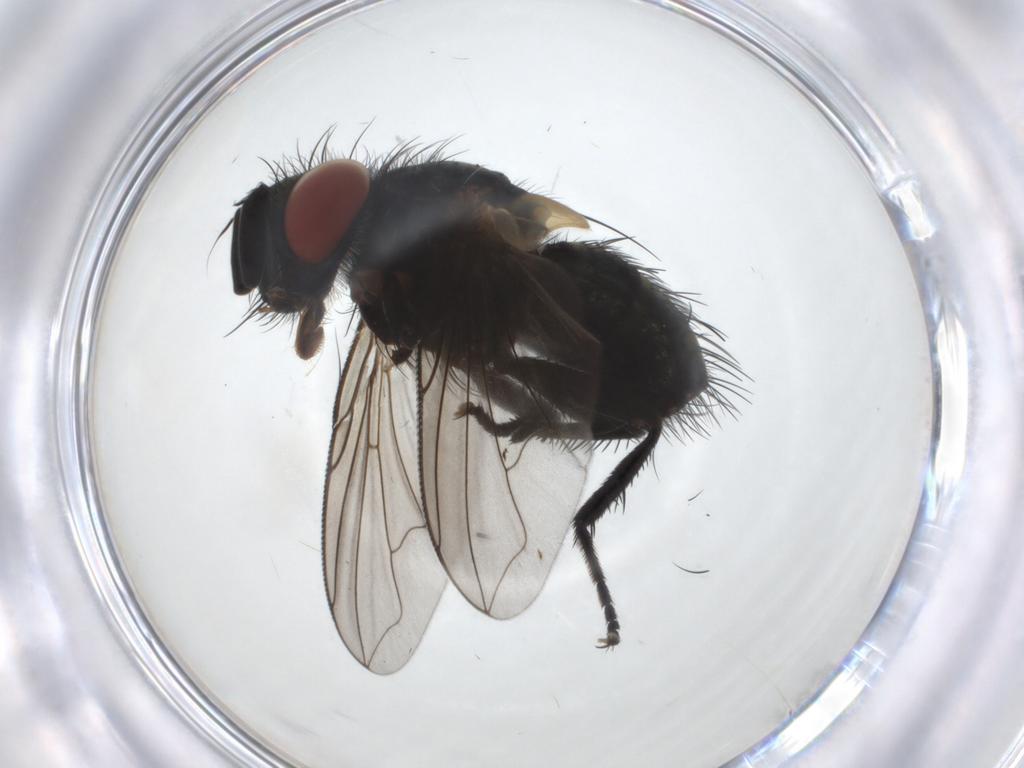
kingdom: Animalia
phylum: Arthropoda
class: Insecta
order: Diptera
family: Tachinidae
